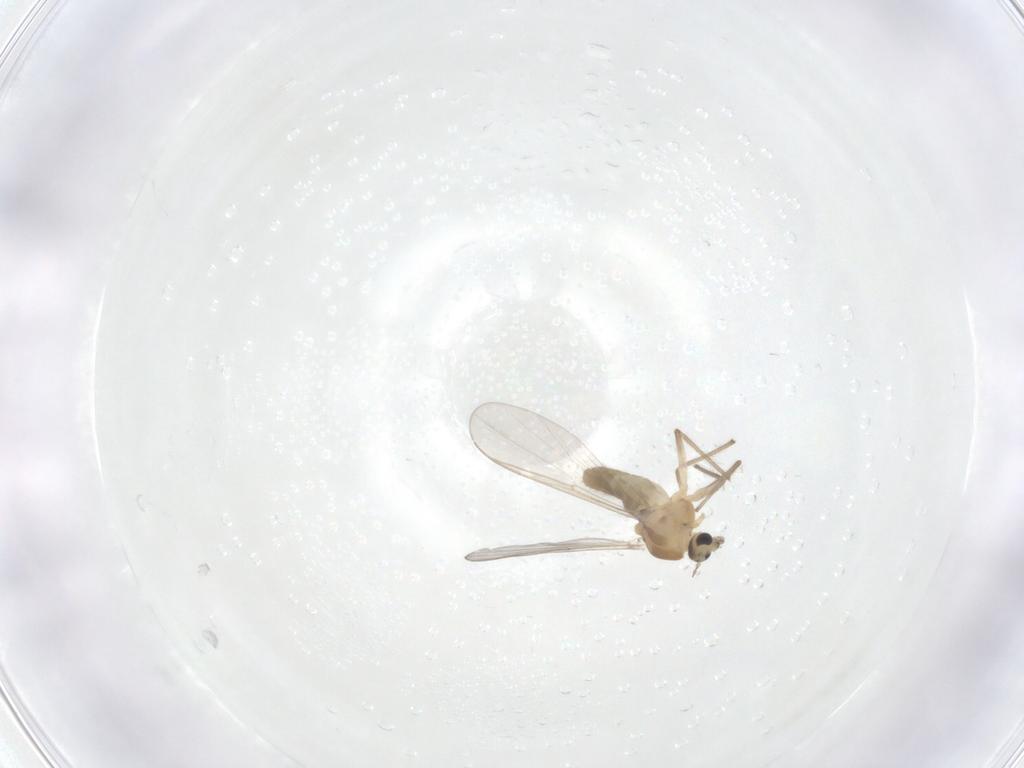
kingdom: Animalia
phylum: Arthropoda
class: Insecta
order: Diptera
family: Chironomidae
